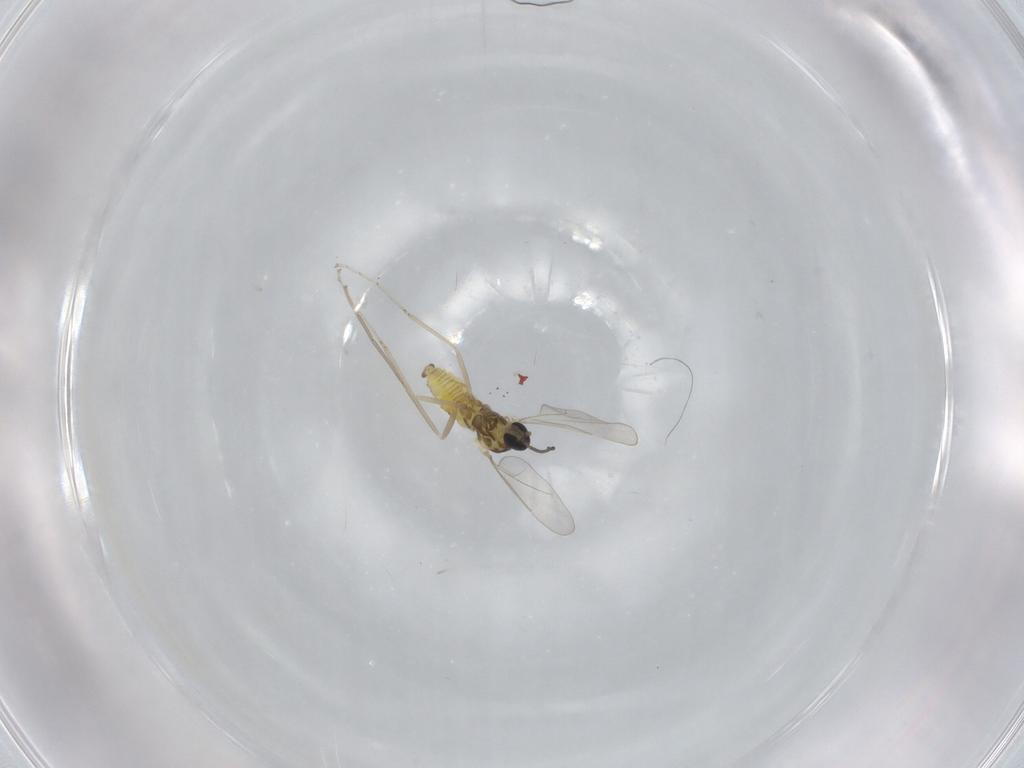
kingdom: Animalia
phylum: Arthropoda
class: Insecta
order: Diptera
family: Cecidomyiidae
